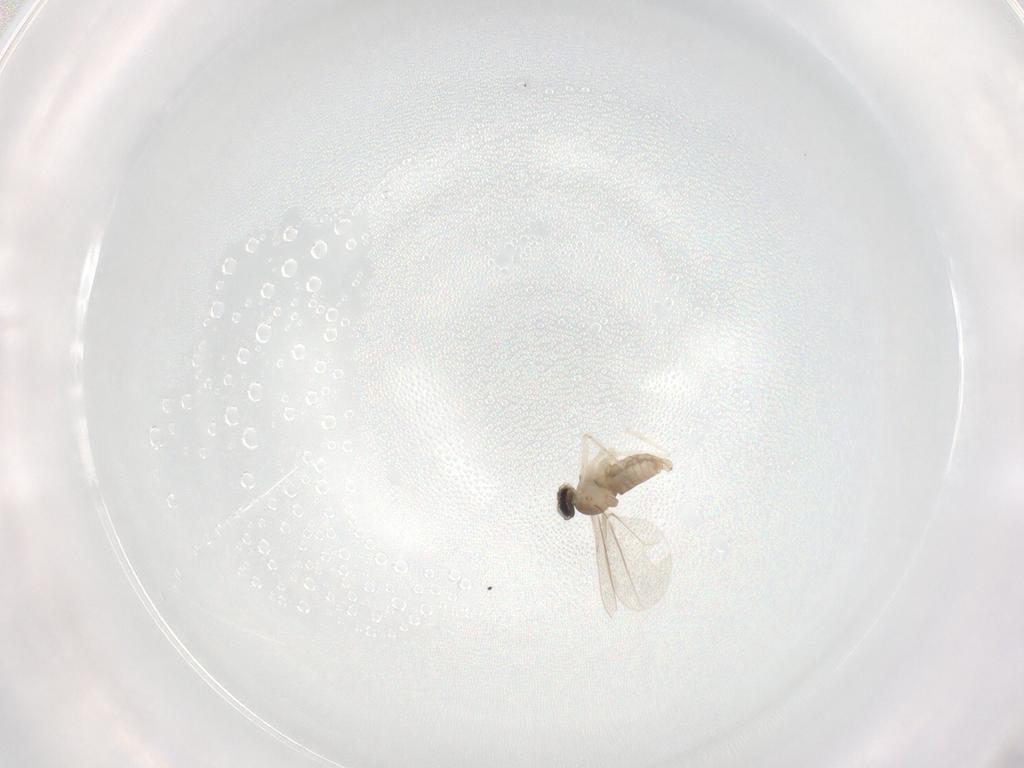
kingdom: Animalia
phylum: Arthropoda
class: Insecta
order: Diptera
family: Cecidomyiidae
